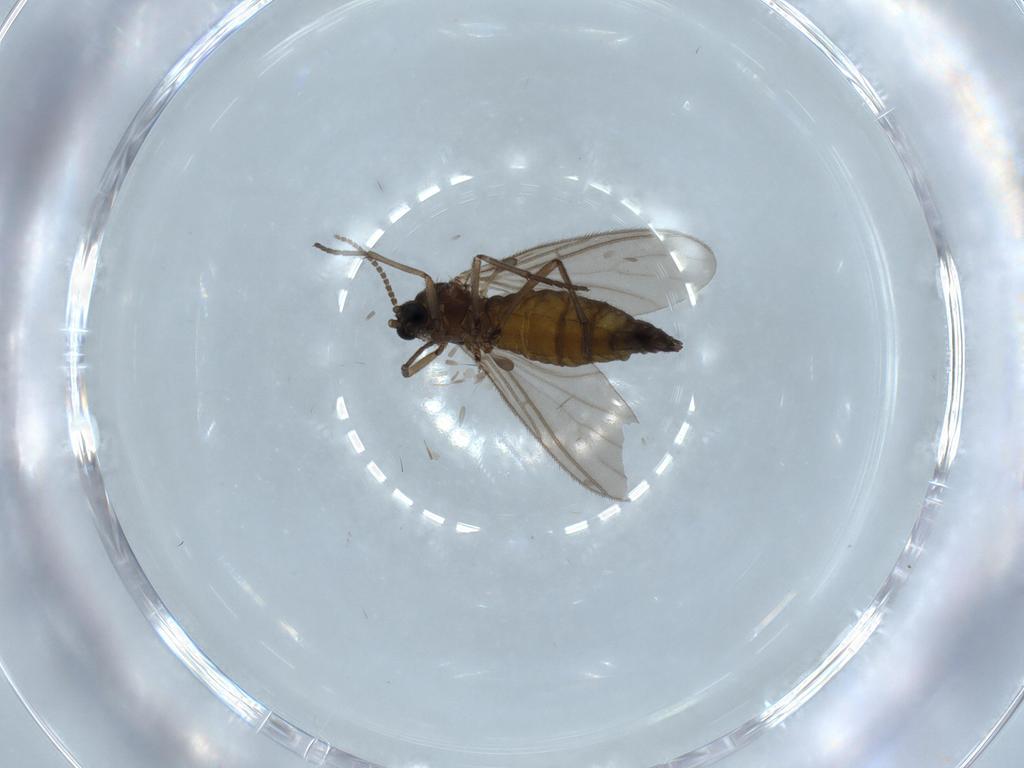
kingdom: Animalia
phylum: Arthropoda
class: Insecta
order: Diptera
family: Sciaridae
